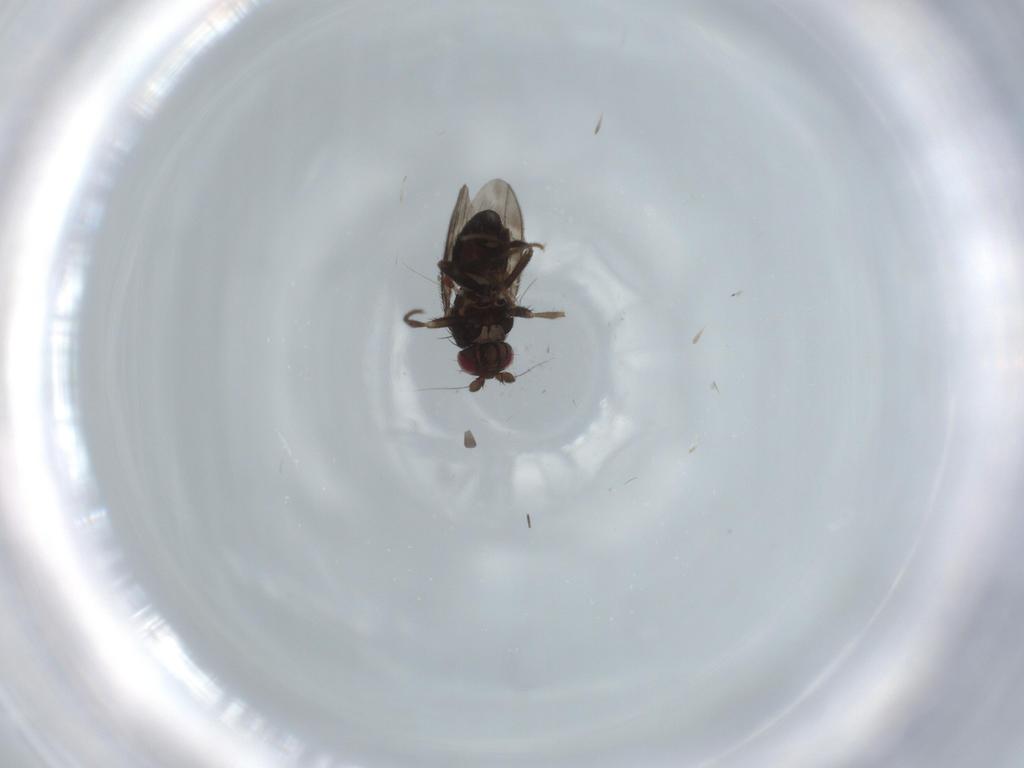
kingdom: Animalia
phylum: Arthropoda
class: Insecta
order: Diptera
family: Sphaeroceridae
